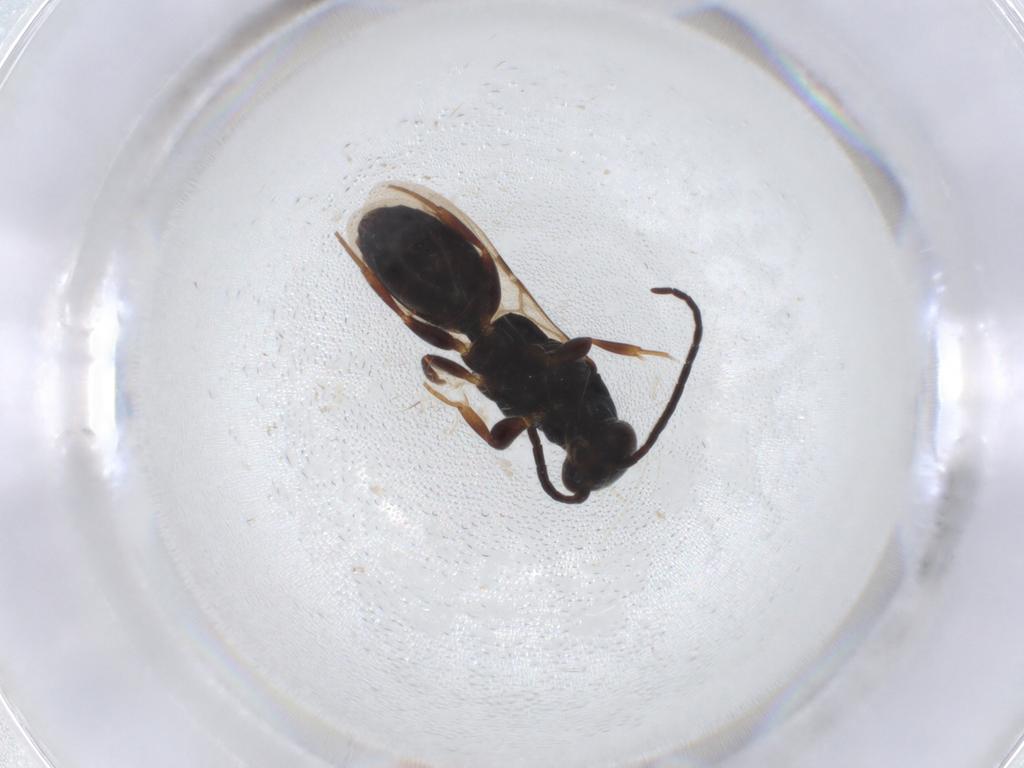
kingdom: Animalia
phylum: Arthropoda
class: Insecta
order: Hymenoptera
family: Bethylidae
